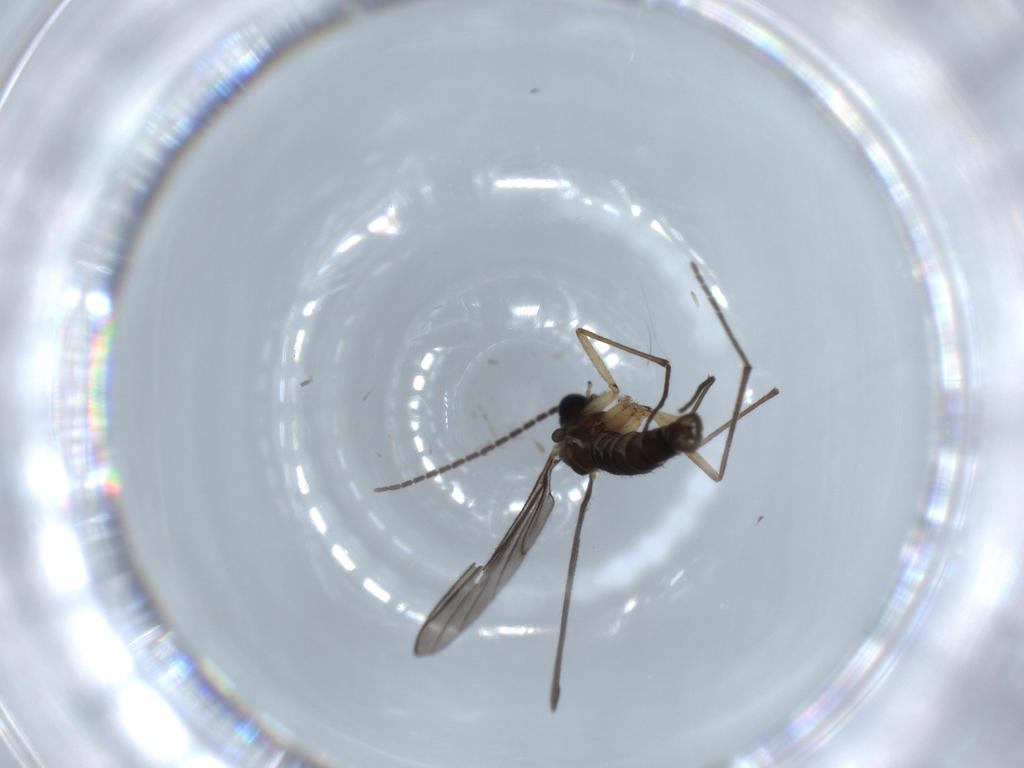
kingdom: Animalia
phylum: Arthropoda
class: Insecta
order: Diptera
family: Sciaridae
